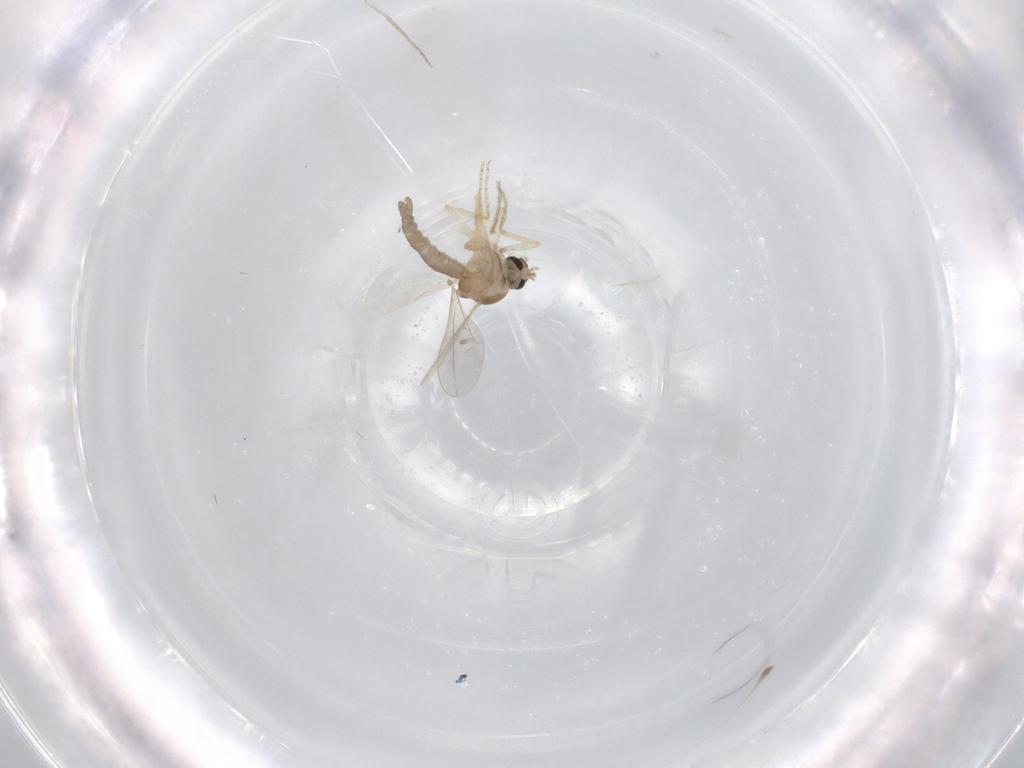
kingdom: Animalia
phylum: Arthropoda
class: Insecta
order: Diptera
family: Ceratopogonidae
